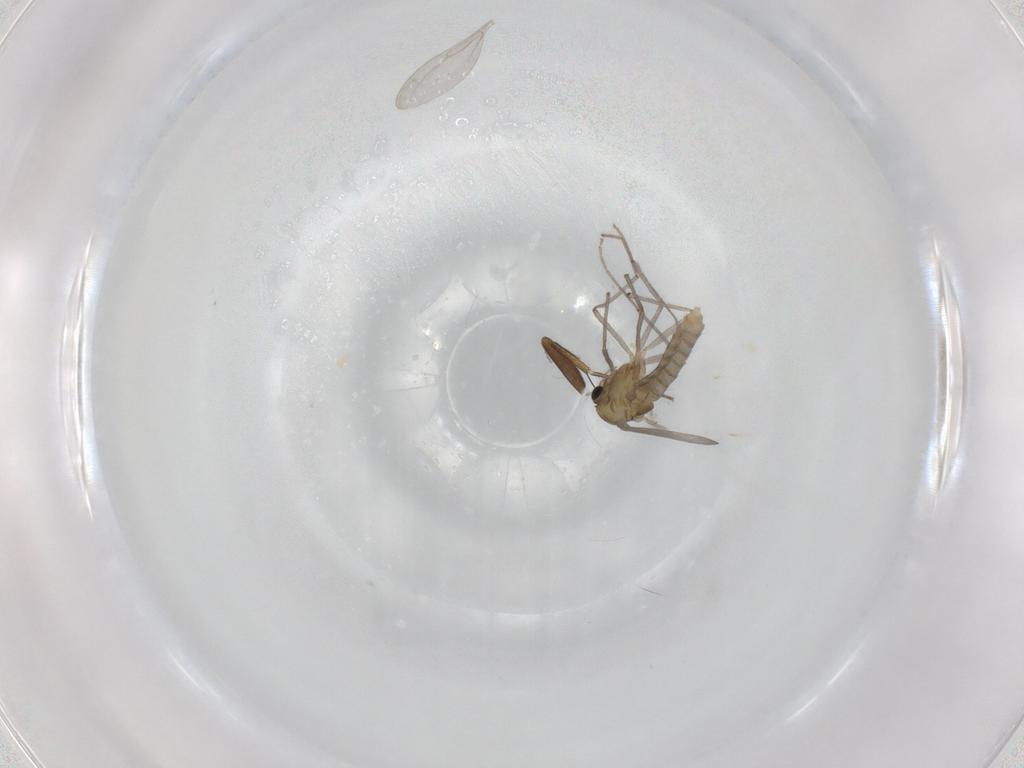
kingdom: Animalia
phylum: Arthropoda
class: Insecta
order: Diptera
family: Chironomidae
